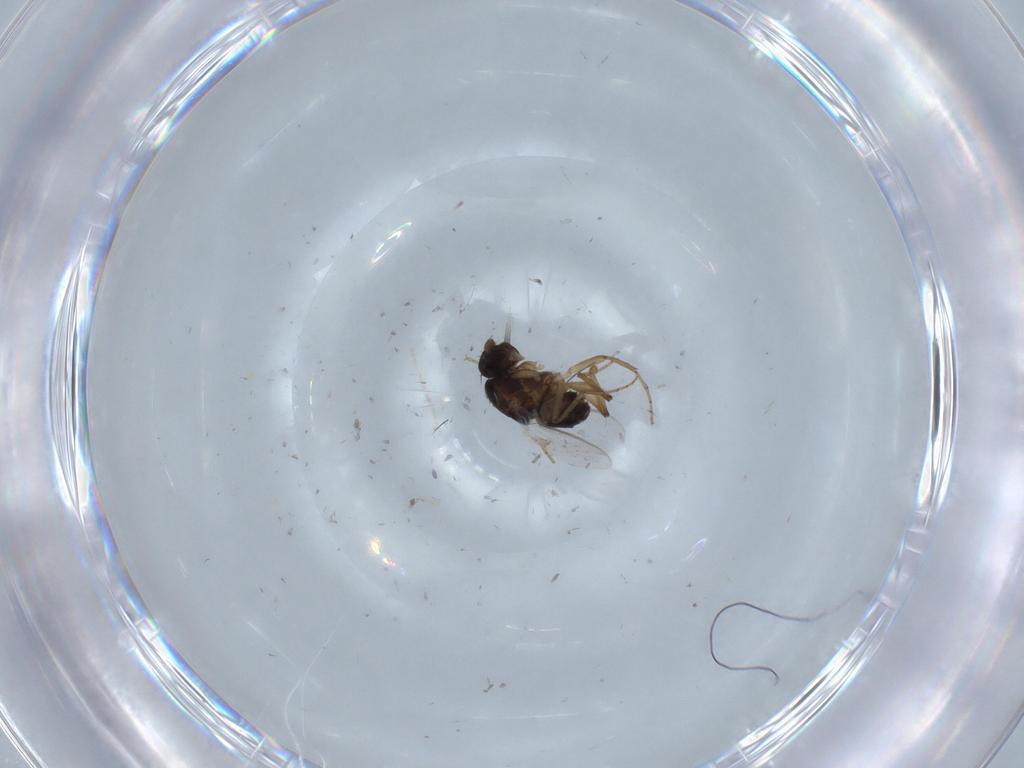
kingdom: Animalia
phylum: Arthropoda
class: Insecta
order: Diptera
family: Sphaeroceridae
